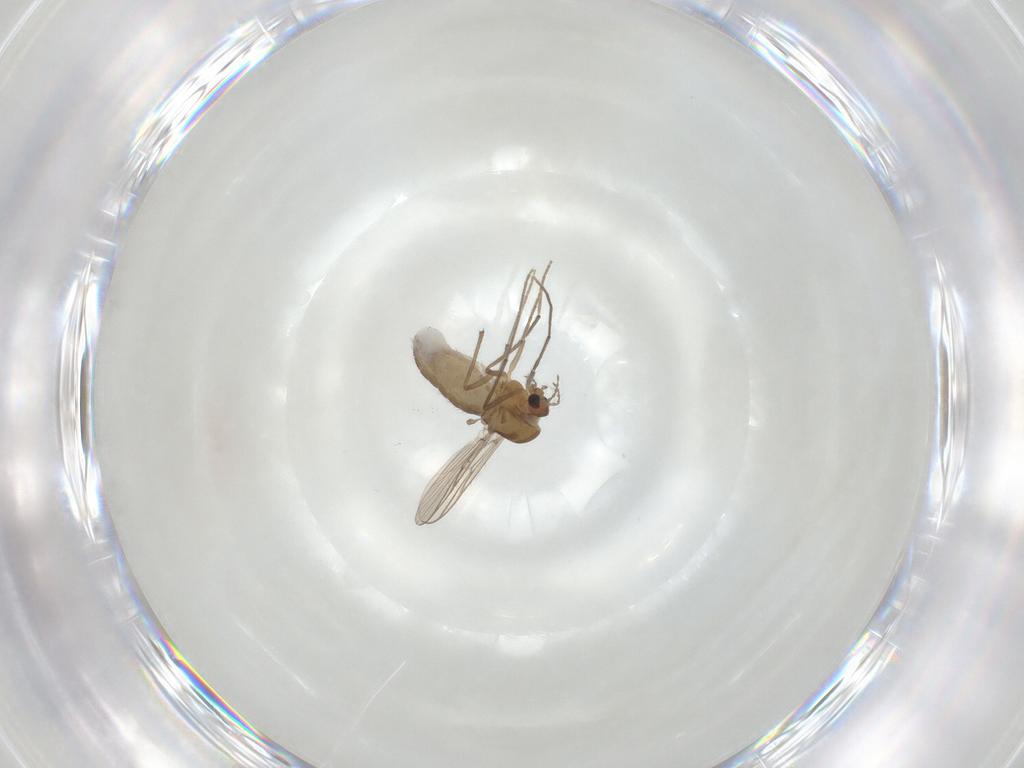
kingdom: Animalia
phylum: Arthropoda
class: Insecta
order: Diptera
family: Chironomidae
